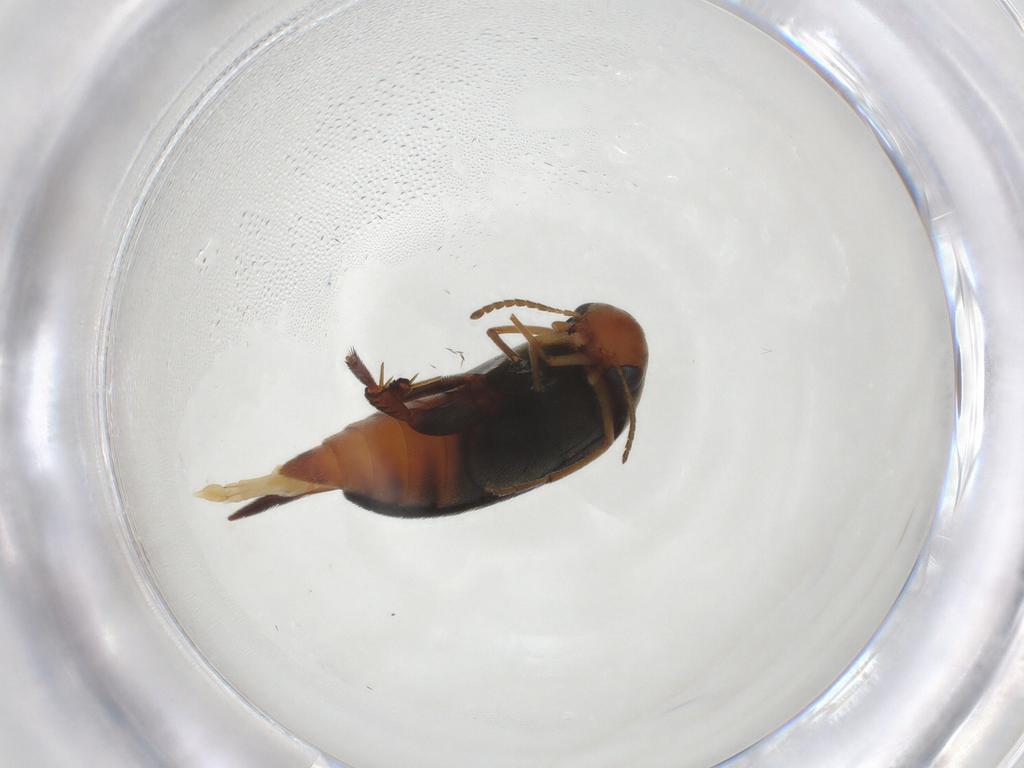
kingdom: Animalia
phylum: Arthropoda
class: Insecta
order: Coleoptera
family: Mordellidae
